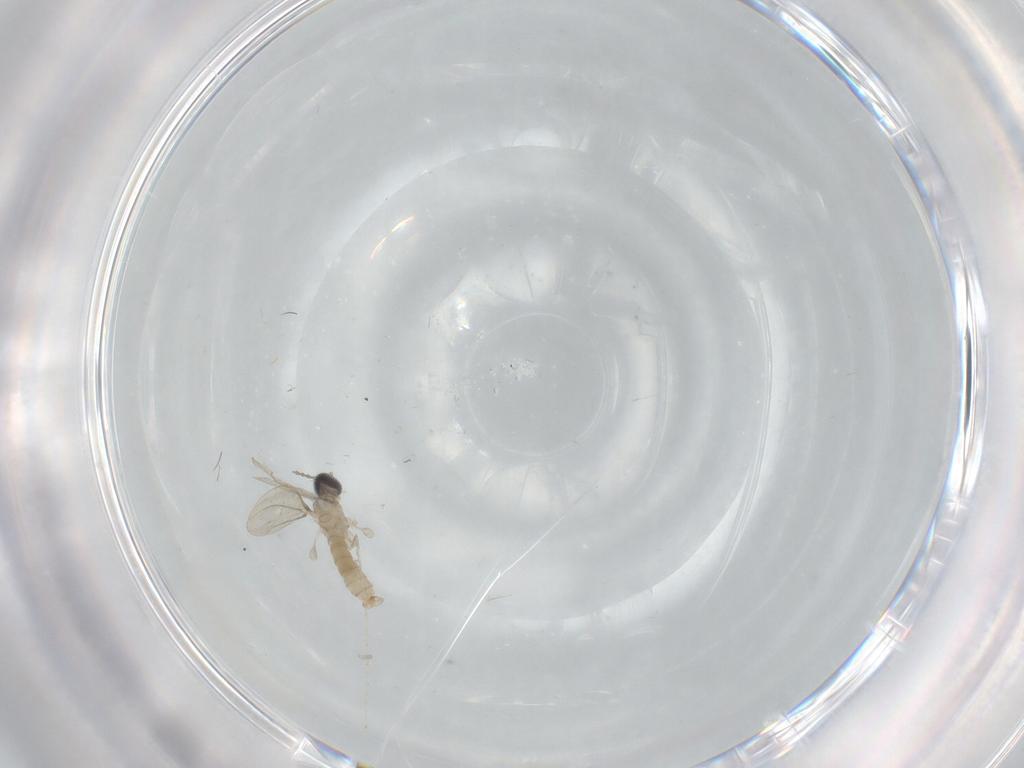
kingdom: Animalia
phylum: Arthropoda
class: Insecta
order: Diptera
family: Cecidomyiidae
